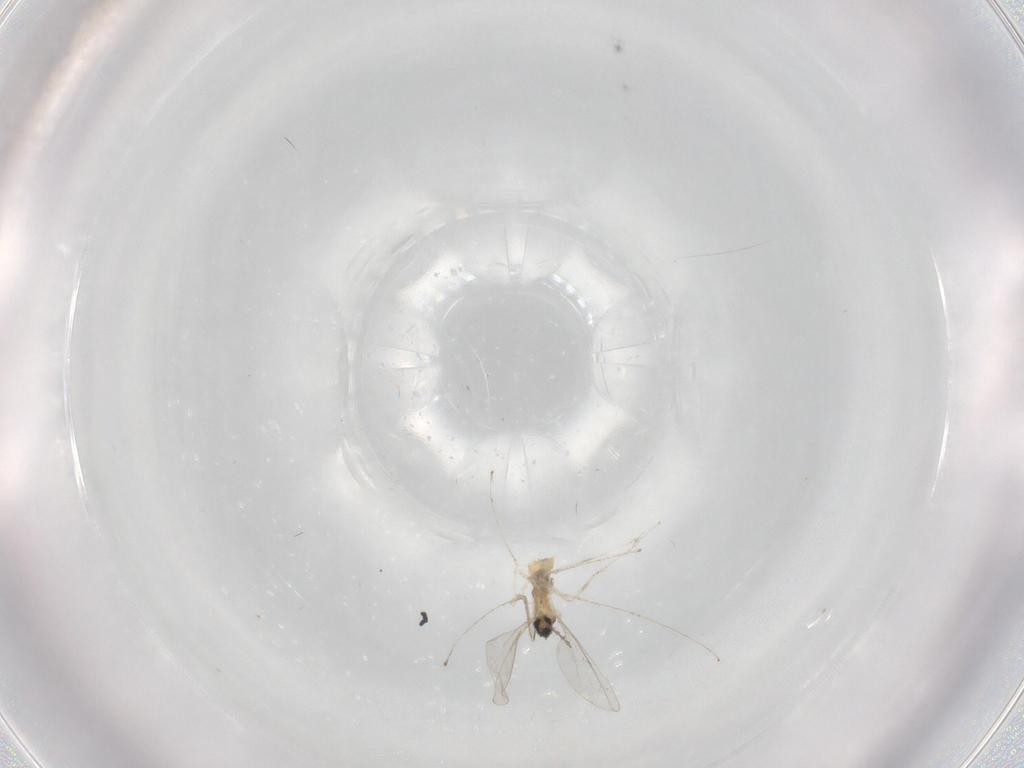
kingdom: Animalia
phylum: Arthropoda
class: Insecta
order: Diptera
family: Cecidomyiidae
